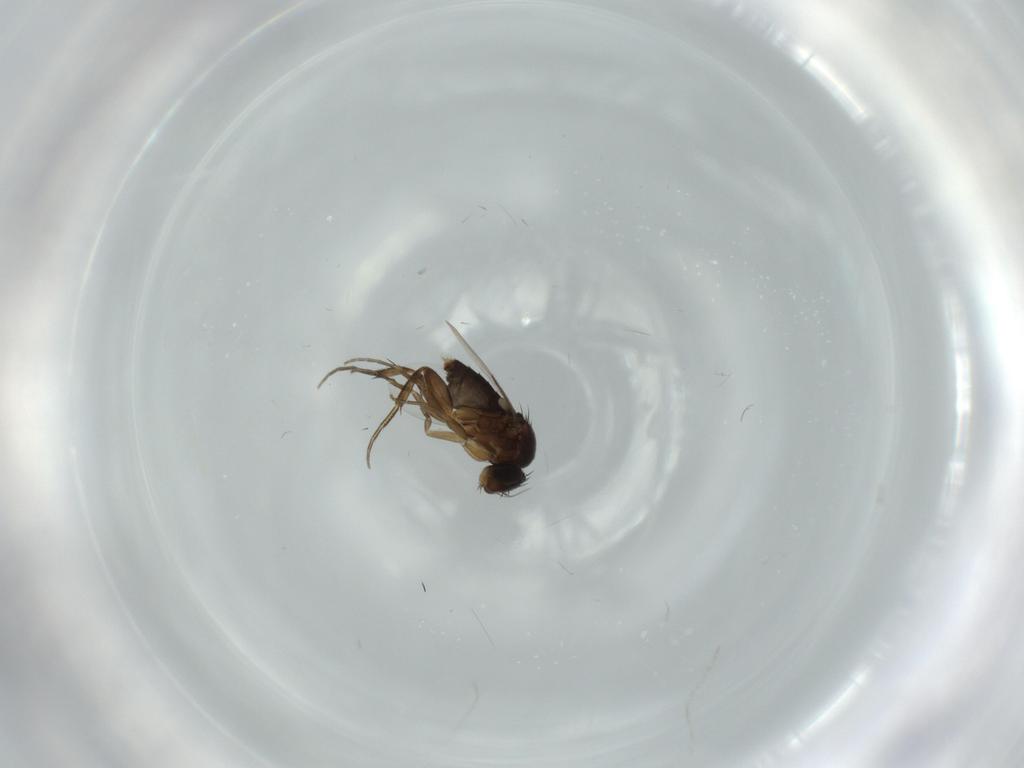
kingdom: Animalia
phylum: Arthropoda
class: Insecta
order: Diptera
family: Phoridae
